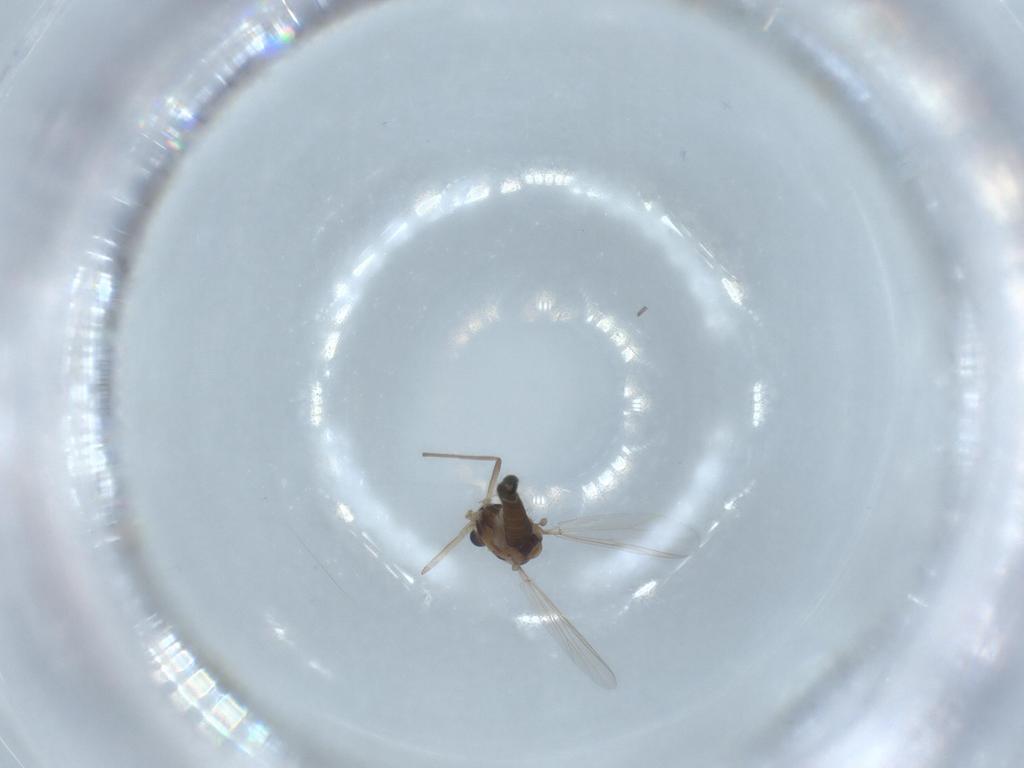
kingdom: Animalia
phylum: Arthropoda
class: Insecta
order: Diptera
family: Chironomidae
